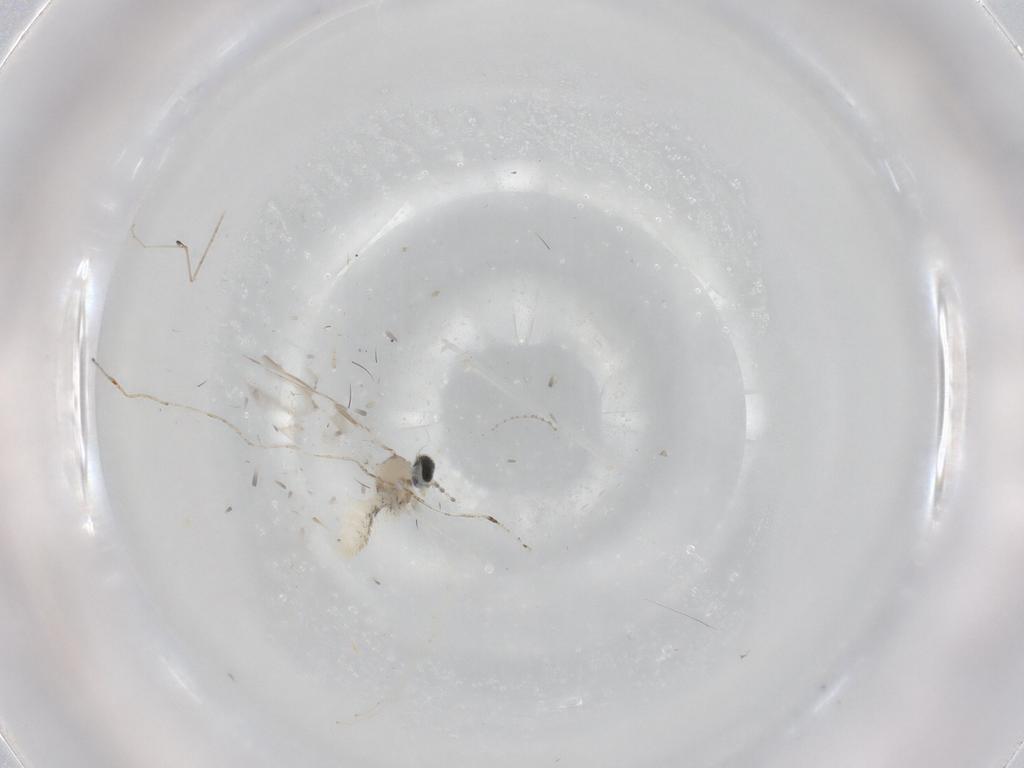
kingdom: Animalia
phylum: Arthropoda
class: Insecta
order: Diptera
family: Cecidomyiidae
